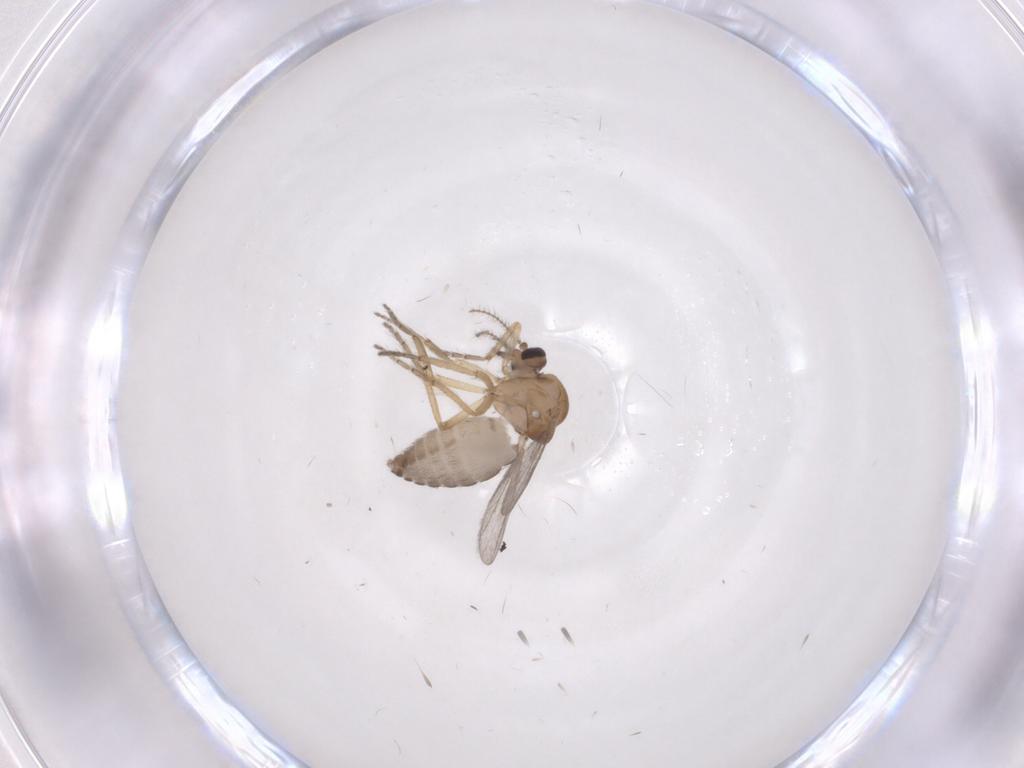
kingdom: Animalia
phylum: Arthropoda
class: Insecta
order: Diptera
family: Ceratopogonidae
